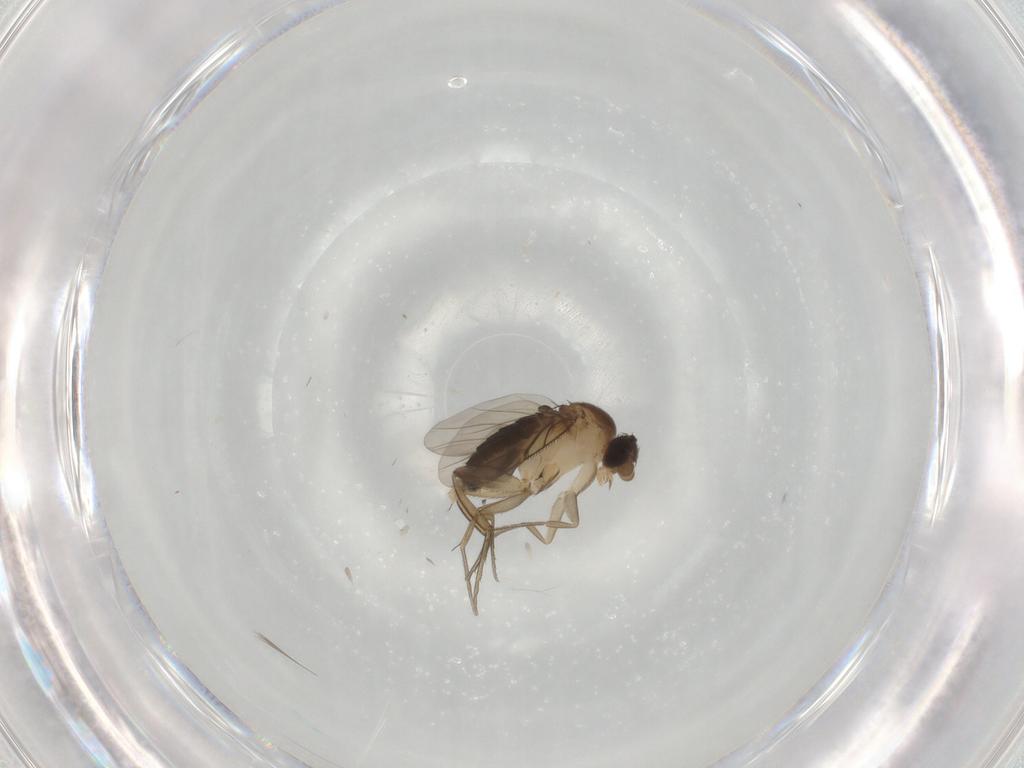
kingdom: Animalia
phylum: Arthropoda
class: Insecta
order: Diptera
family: Phoridae
